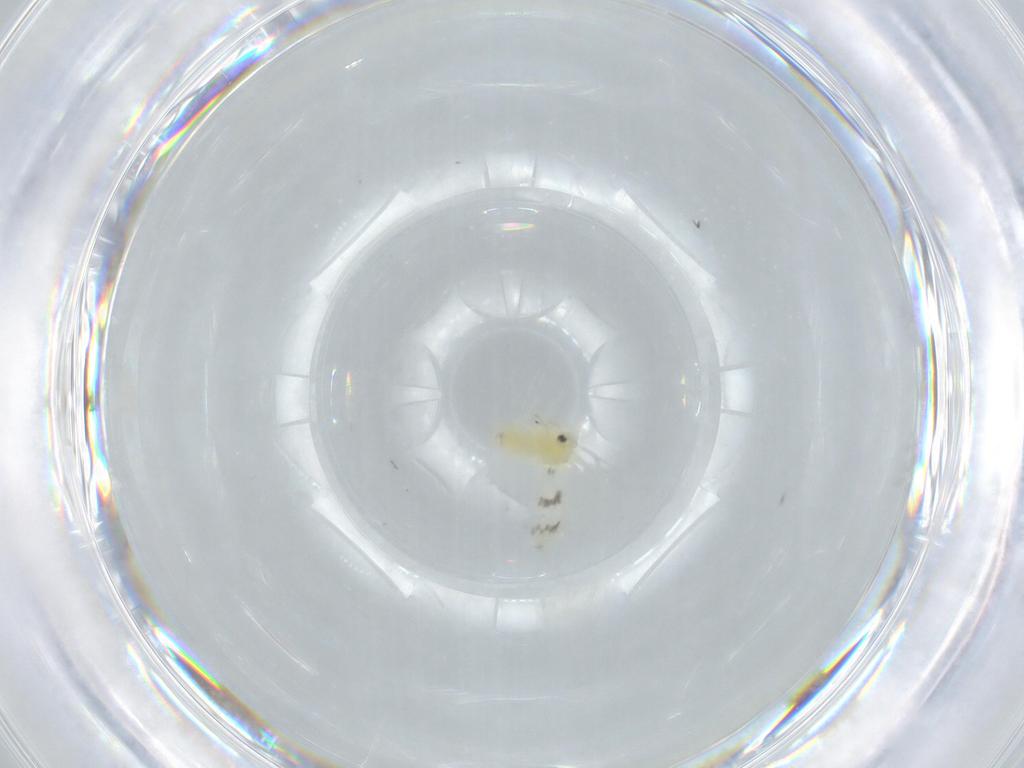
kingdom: Animalia
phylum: Arthropoda
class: Insecta
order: Hemiptera
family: Aleyrodidae
